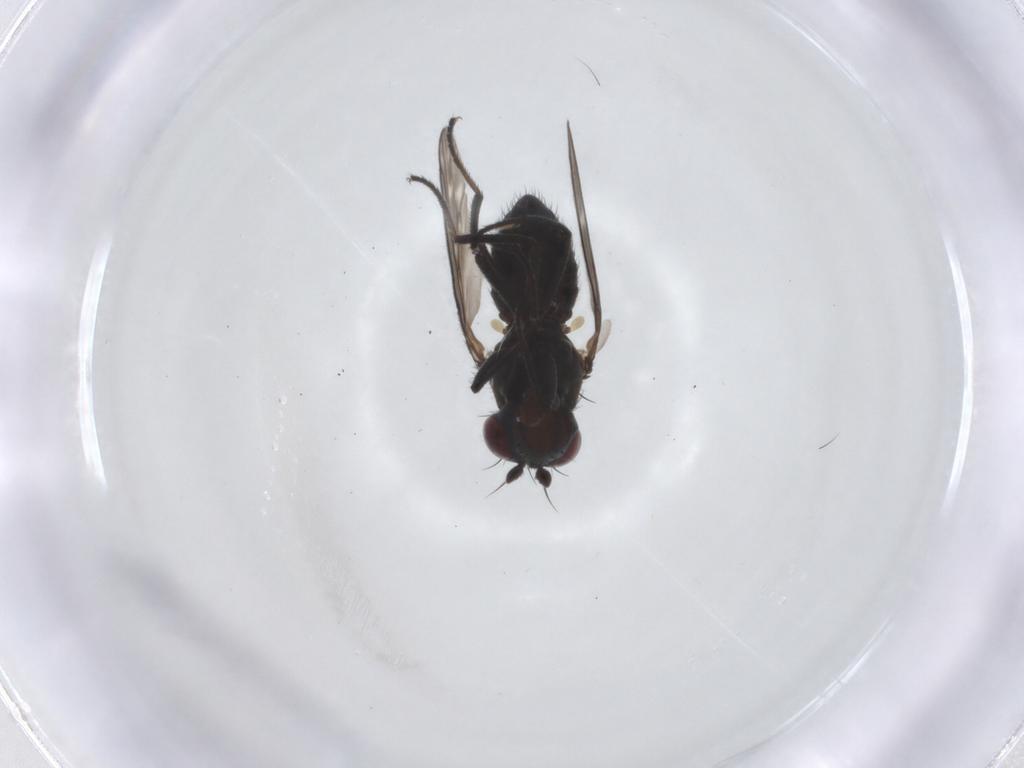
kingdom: Animalia
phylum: Arthropoda
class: Insecta
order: Diptera
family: Ephydridae
